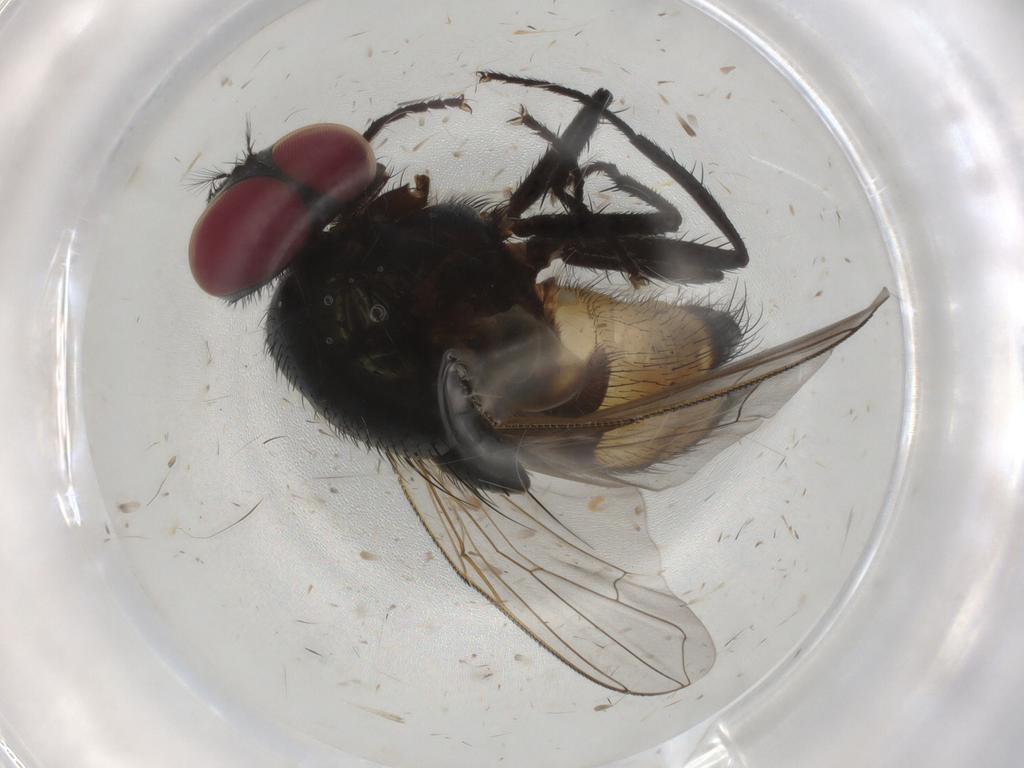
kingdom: Animalia
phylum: Arthropoda
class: Insecta
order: Diptera
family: Sciaridae
